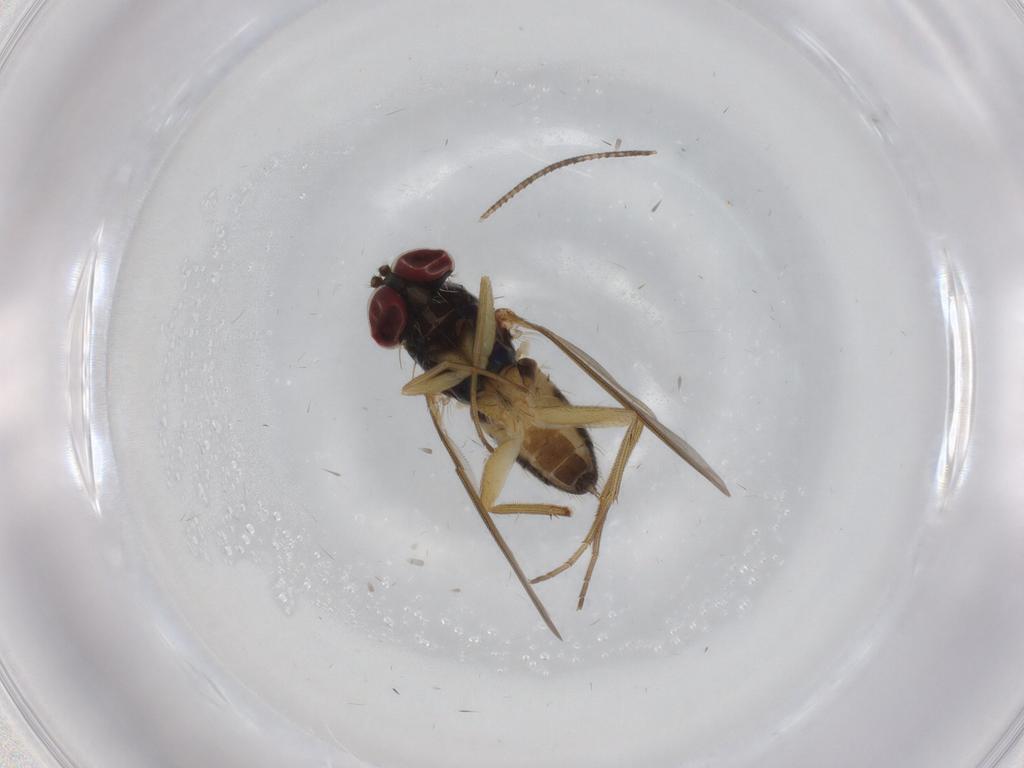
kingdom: Animalia
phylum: Arthropoda
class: Insecta
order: Diptera
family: Dolichopodidae
